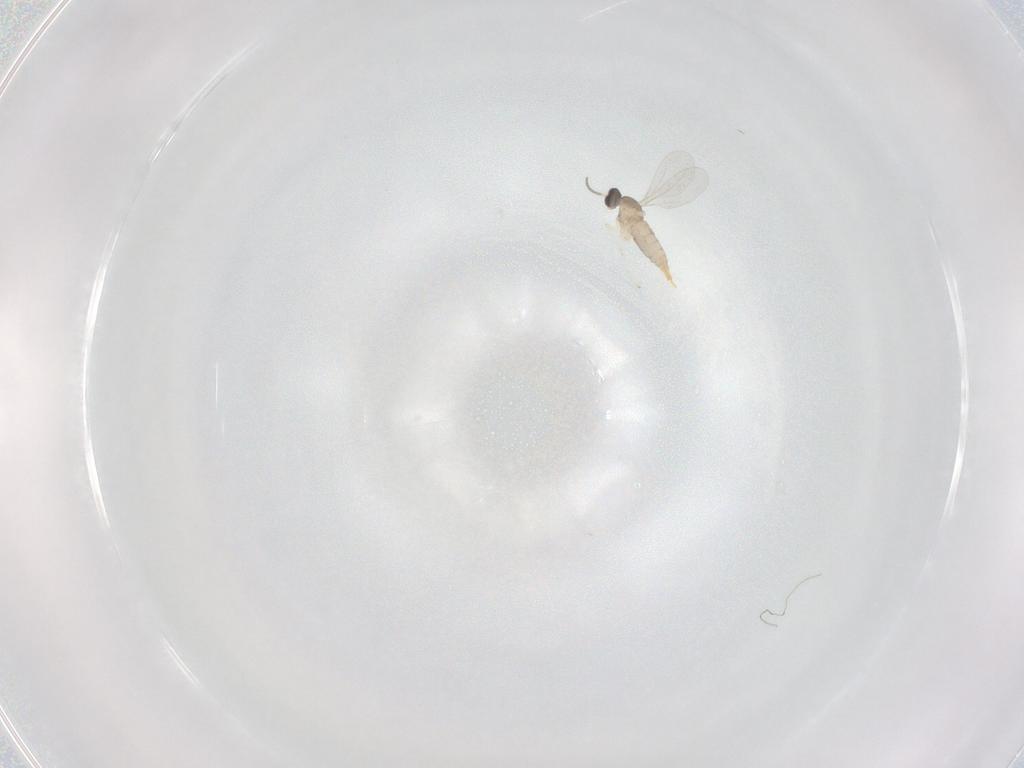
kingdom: Animalia
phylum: Arthropoda
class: Insecta
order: Diptera
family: Cecidomyiidae
